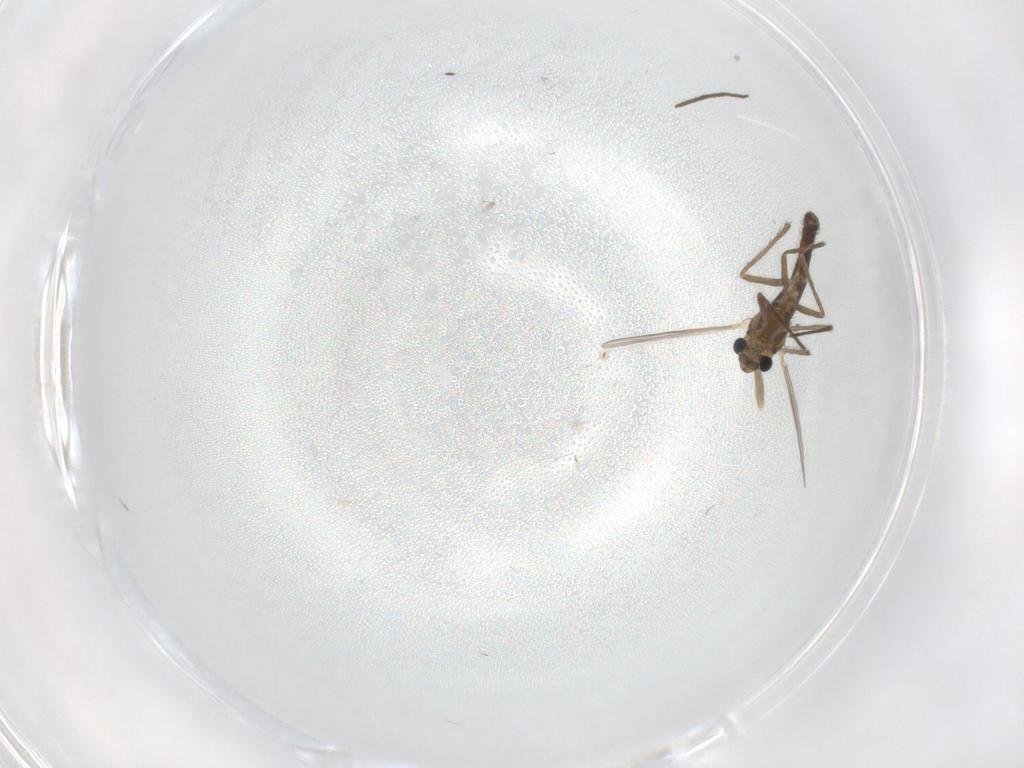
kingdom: Animalia
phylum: Arthropoda
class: Insecta
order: Diptera
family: Chironomidae
